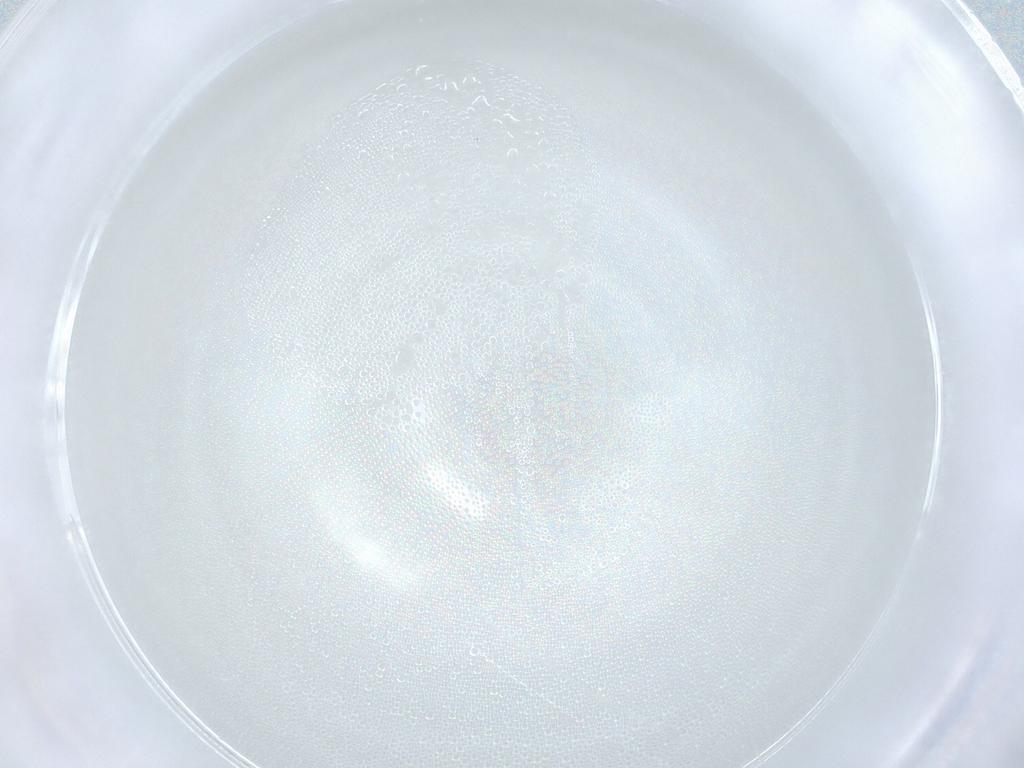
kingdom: Animalia
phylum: Arthropoda
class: Insecta
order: Diptera
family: Cecidomyiidae
